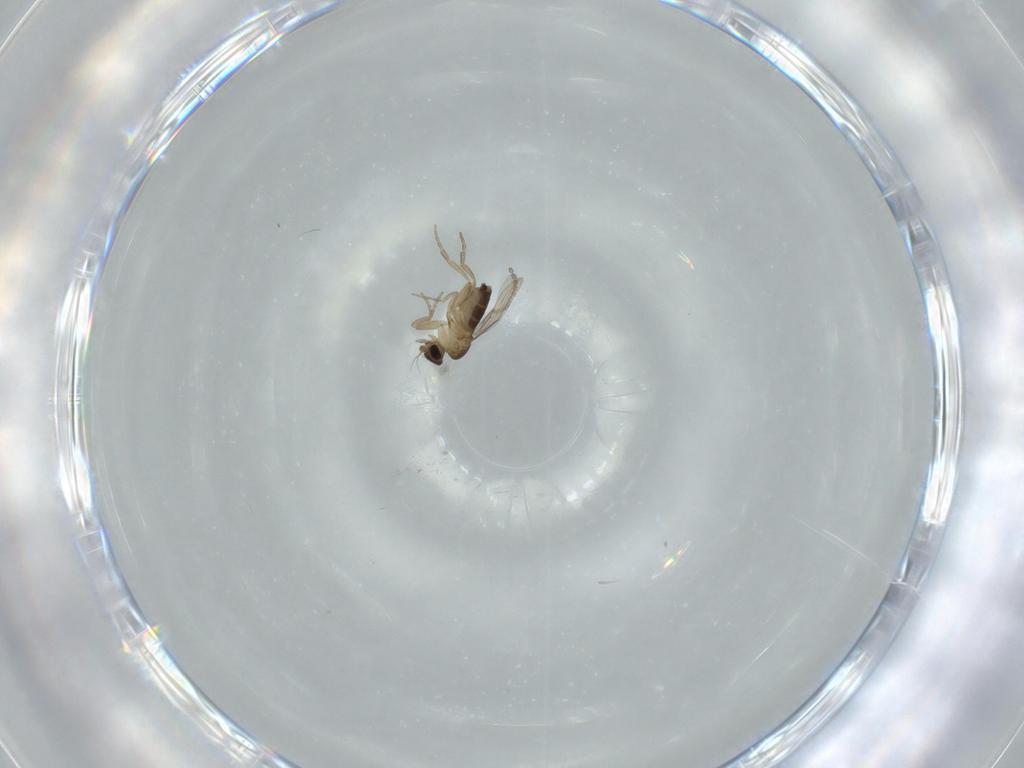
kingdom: Animalia
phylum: Arthropoda
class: Insecta
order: Diptera
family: Phoridae
